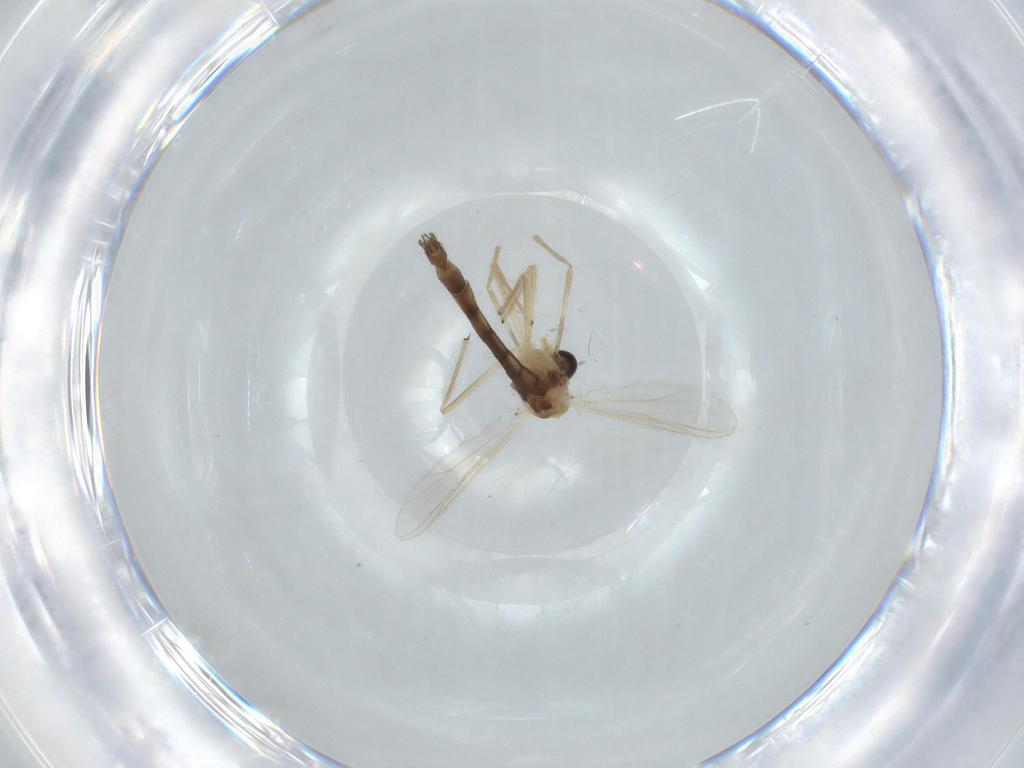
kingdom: Animalia
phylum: Arthropoda
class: Insecta
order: Diptera
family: Chironomidae
